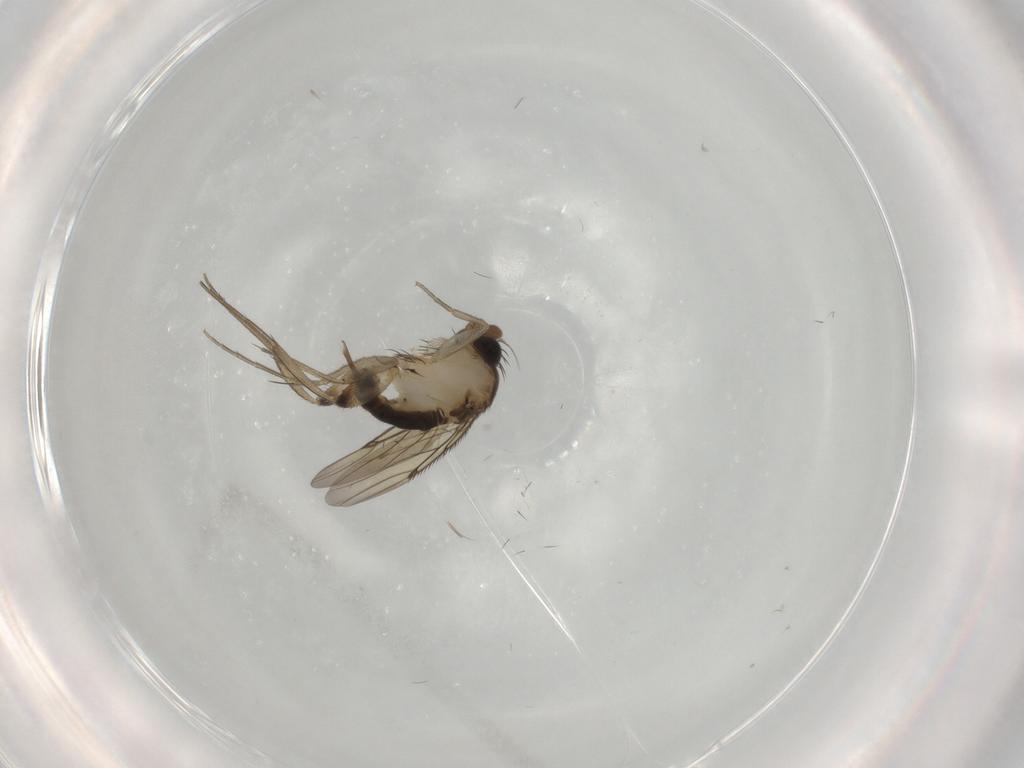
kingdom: Animalia
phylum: Arthropoda
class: Insecta
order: Diptera
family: Phoridae
